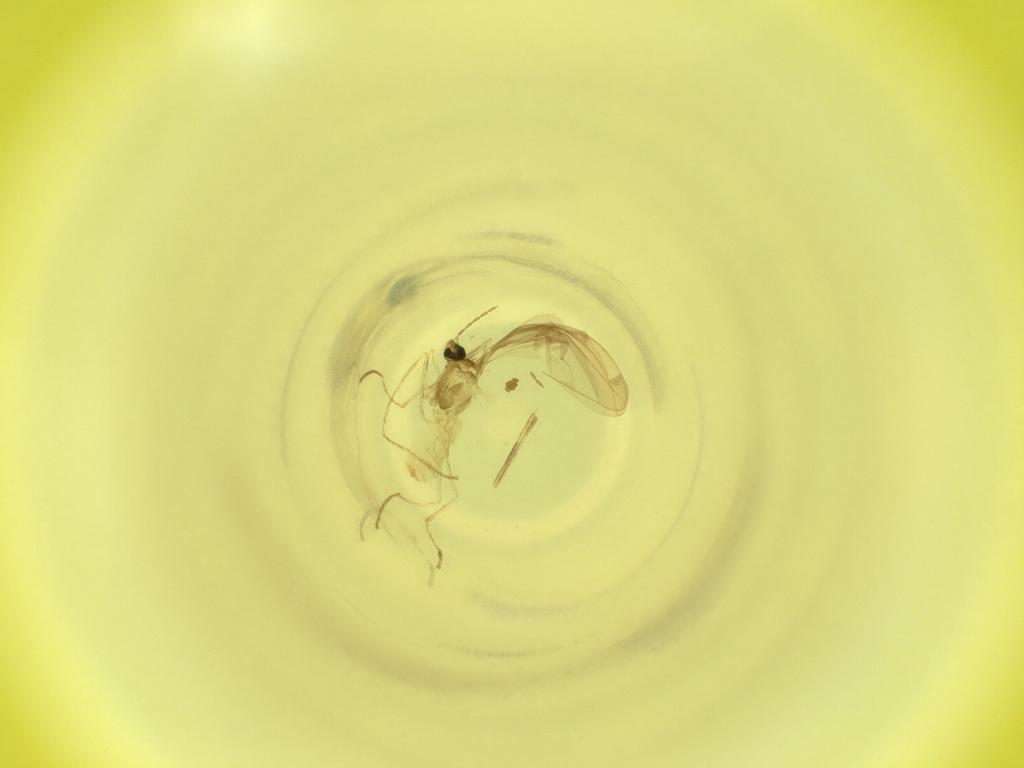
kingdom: Animalia
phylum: Arthropoda
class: Insecta
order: Diptera
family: Cecidomyiidae
